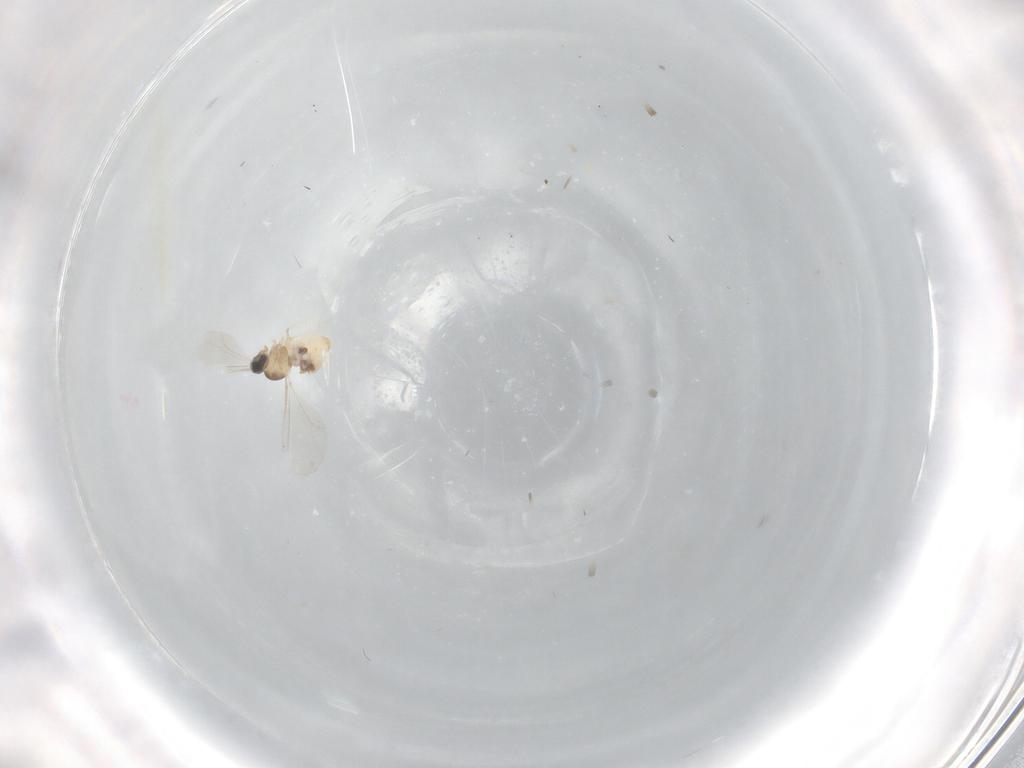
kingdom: Animalia
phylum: Arthropoda
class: Insecta
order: Diptera
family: Cecidomyiidae
